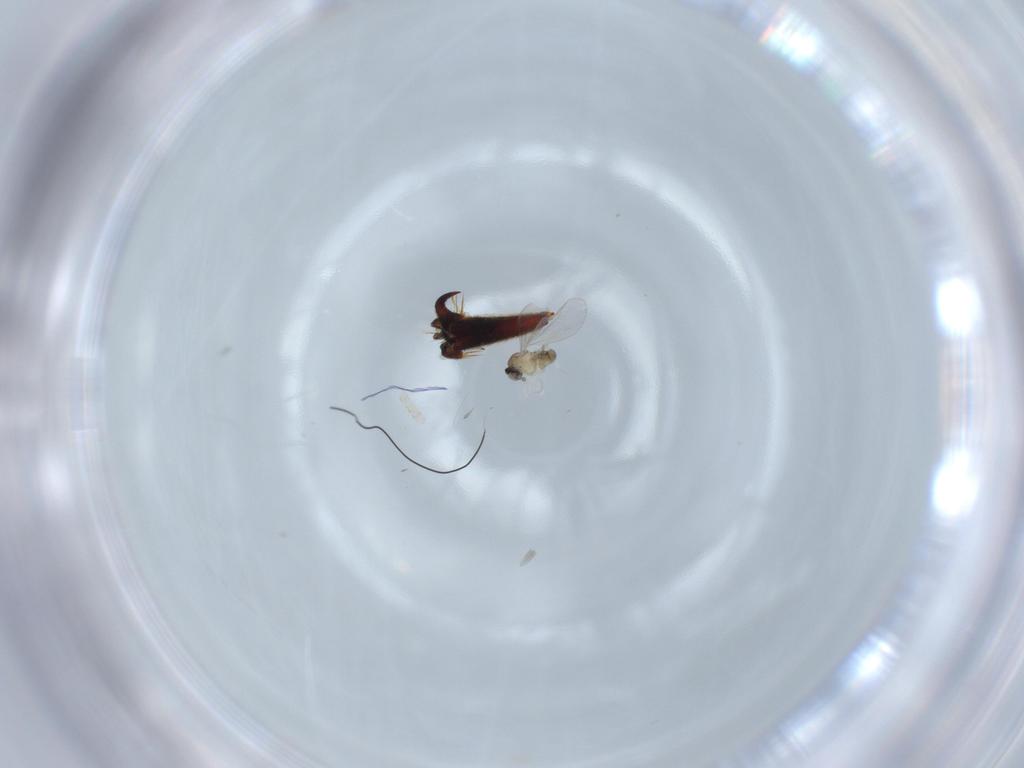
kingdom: Animalia
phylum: Arthropoda
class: Insecta
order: Diptera
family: Cecidomyiidae
